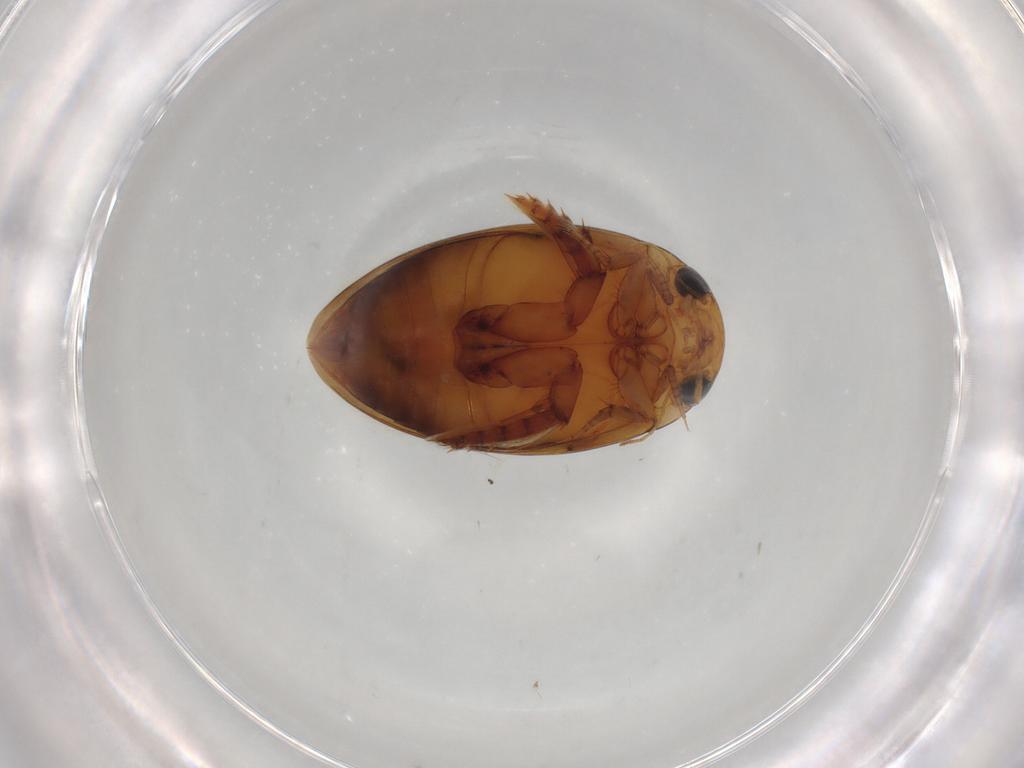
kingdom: Animalia
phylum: Arthropoda
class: Insecta
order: Coleoptera
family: Dytiscidae
